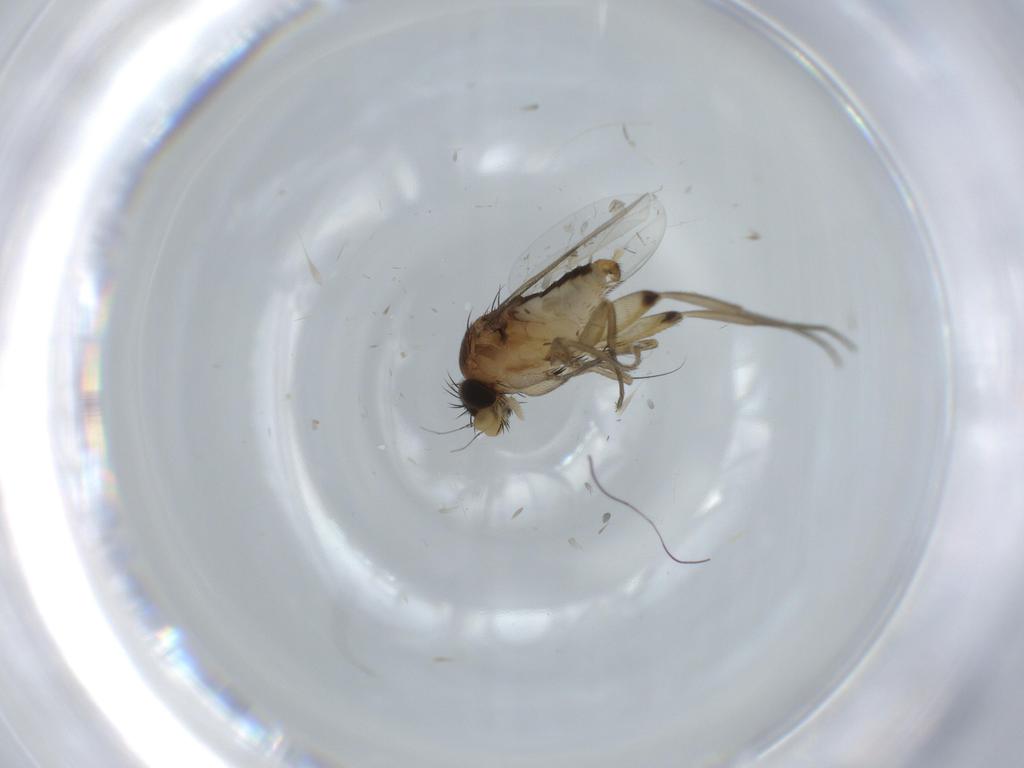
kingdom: Animalia
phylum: Arthropoda
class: Insecta
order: Diptera
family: Phoridae
